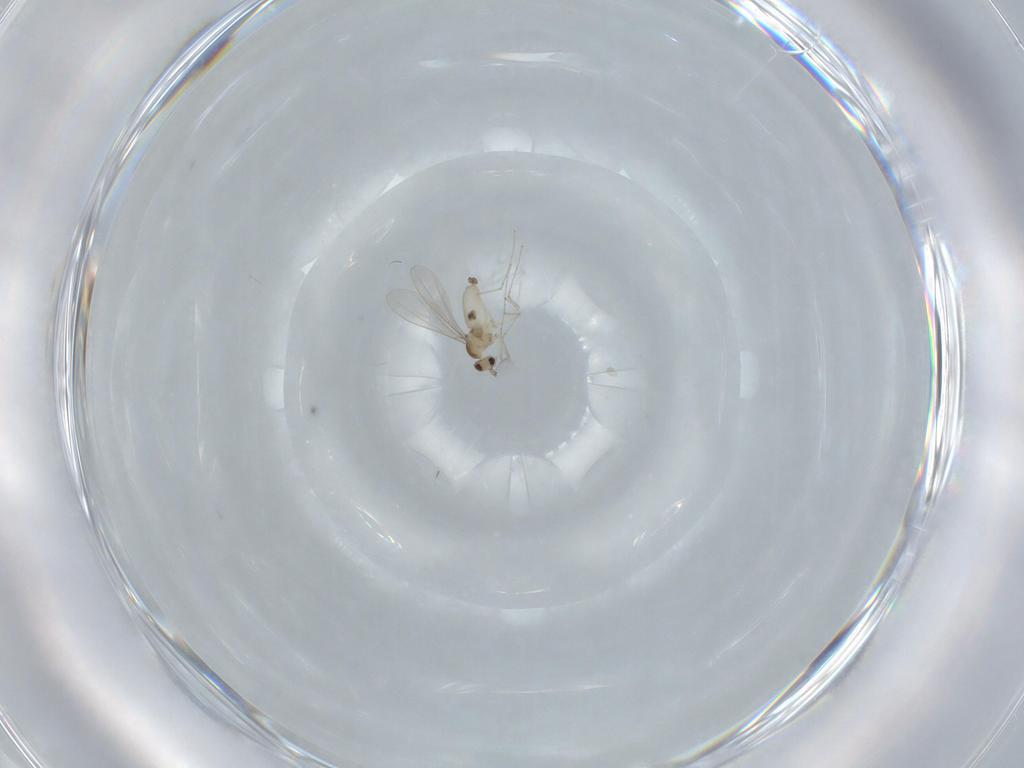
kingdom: Animalia
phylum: Arthropoda
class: Insecta
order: Diptera
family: Cecidomyiidae
